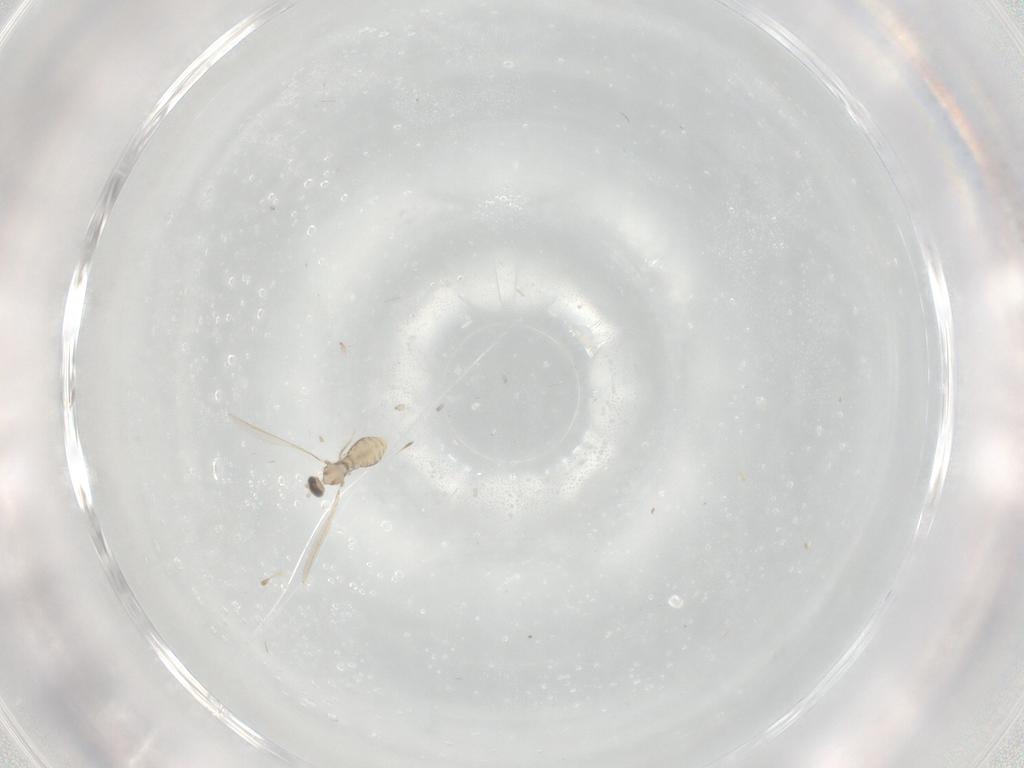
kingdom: Animalia
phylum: Arthropoda
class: Insecta
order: Diptera
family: Cecidomyiidae
